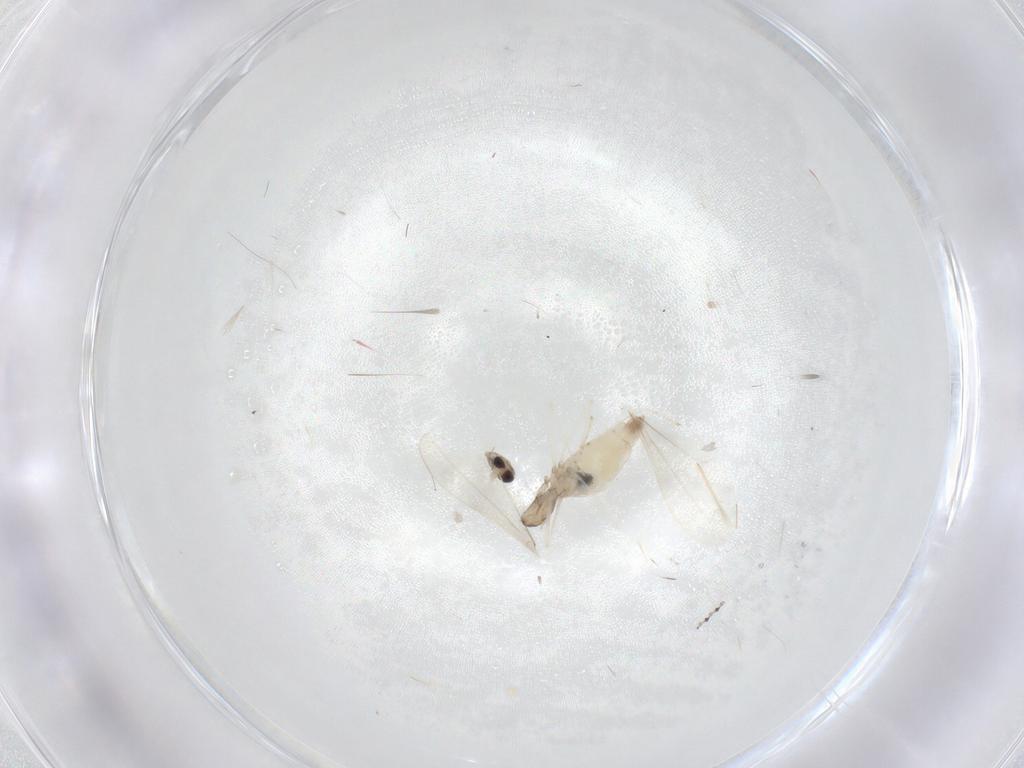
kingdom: Animalia
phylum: Arthropoda
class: Insecta
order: Diptera
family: Cecidomyiidae
